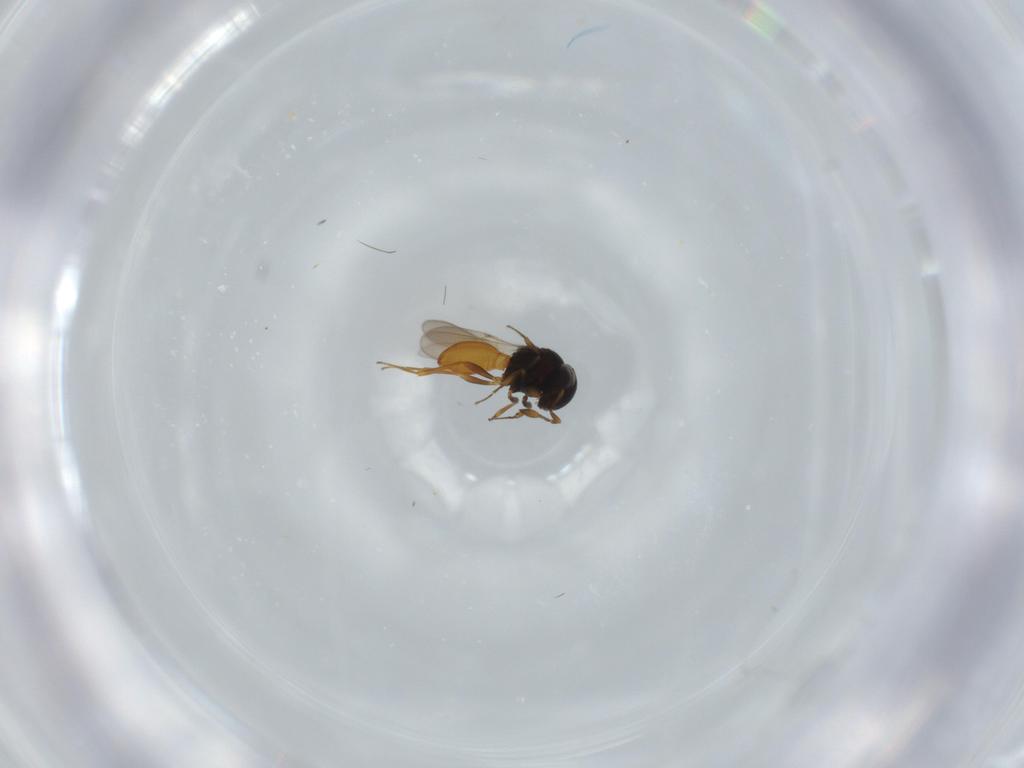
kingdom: Animalia
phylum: Arthropoda
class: Insecta
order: Hymenoptera
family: Scelionidae
